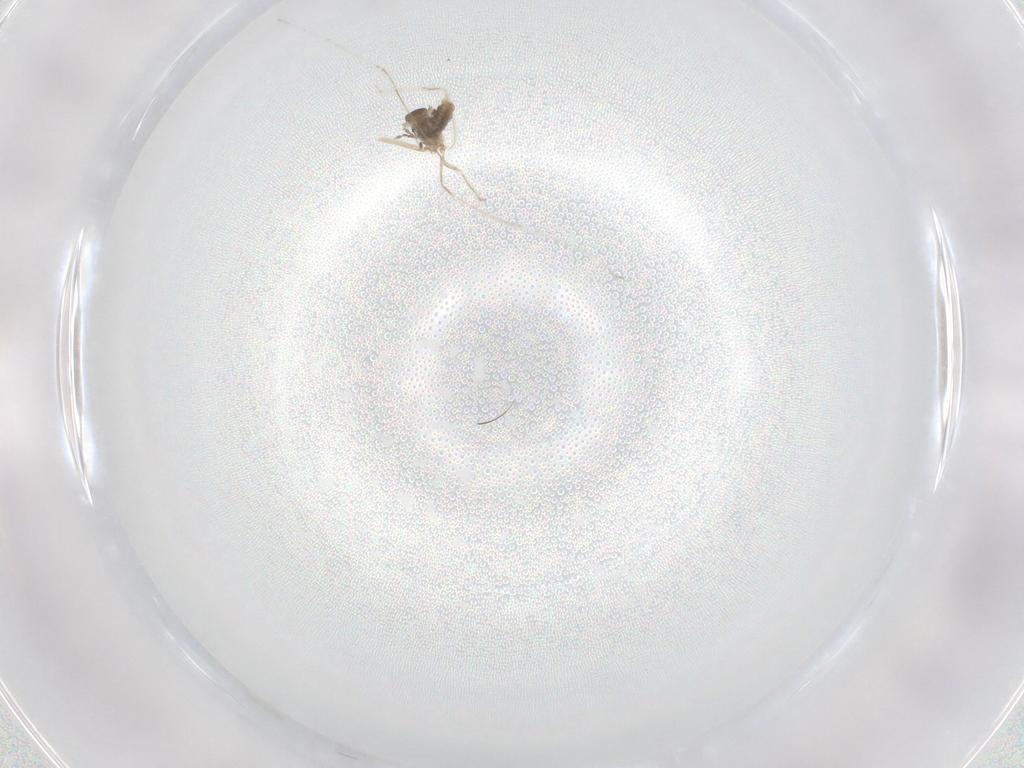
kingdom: Animalia
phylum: Arthropoda
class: Insecta
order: Diptera
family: Cecidomyiidae
